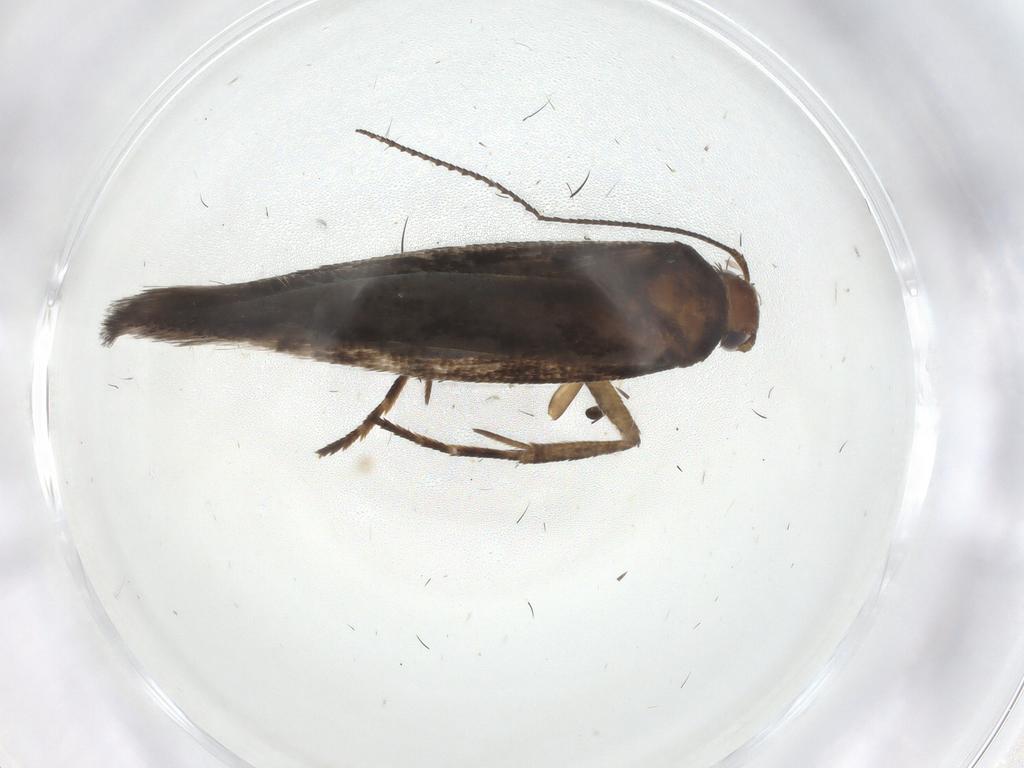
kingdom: Animalia
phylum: Arthropoda
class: Insecta
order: Lepidoptera
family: Gelechiidae
